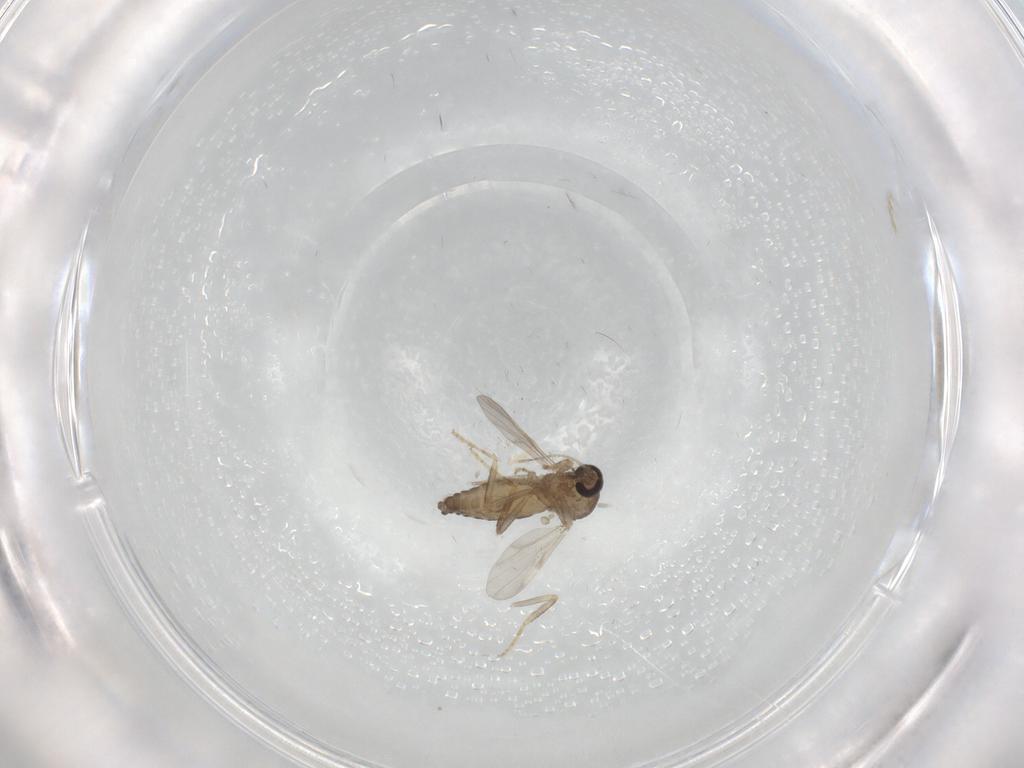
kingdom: Animalia
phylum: Arthropoda
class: Insecta
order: Diptera
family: Ceratopogonidae
